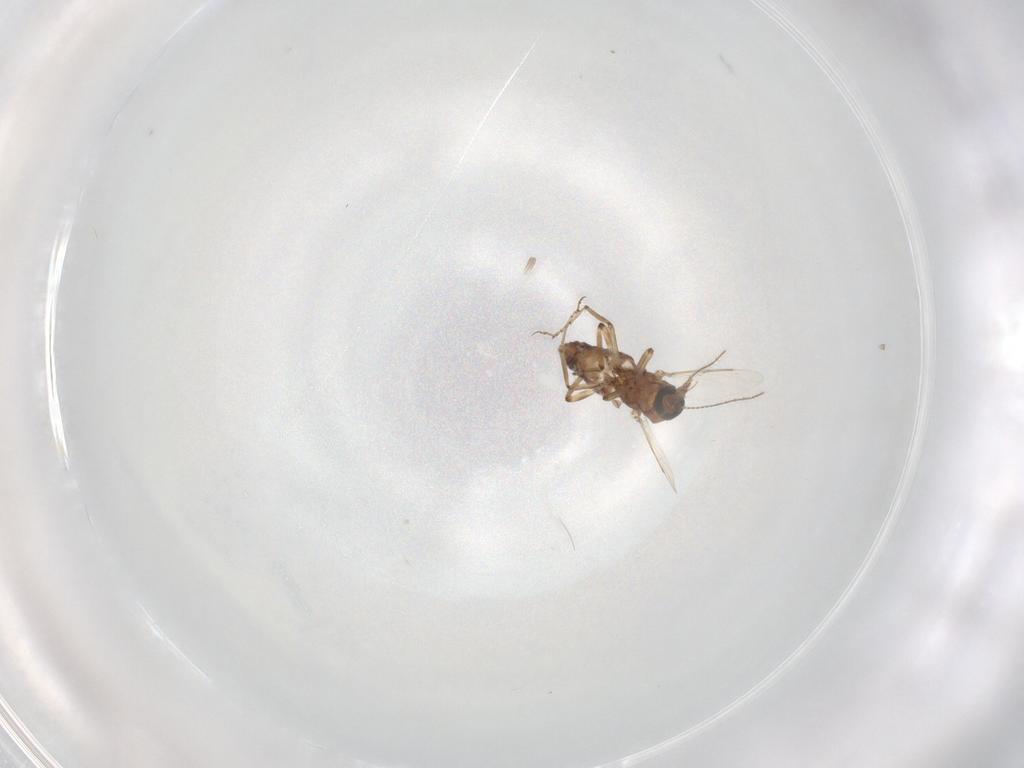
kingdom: Animalia
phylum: Arthropoda
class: Insecta
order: Diptera
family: Ceratopogonidae
